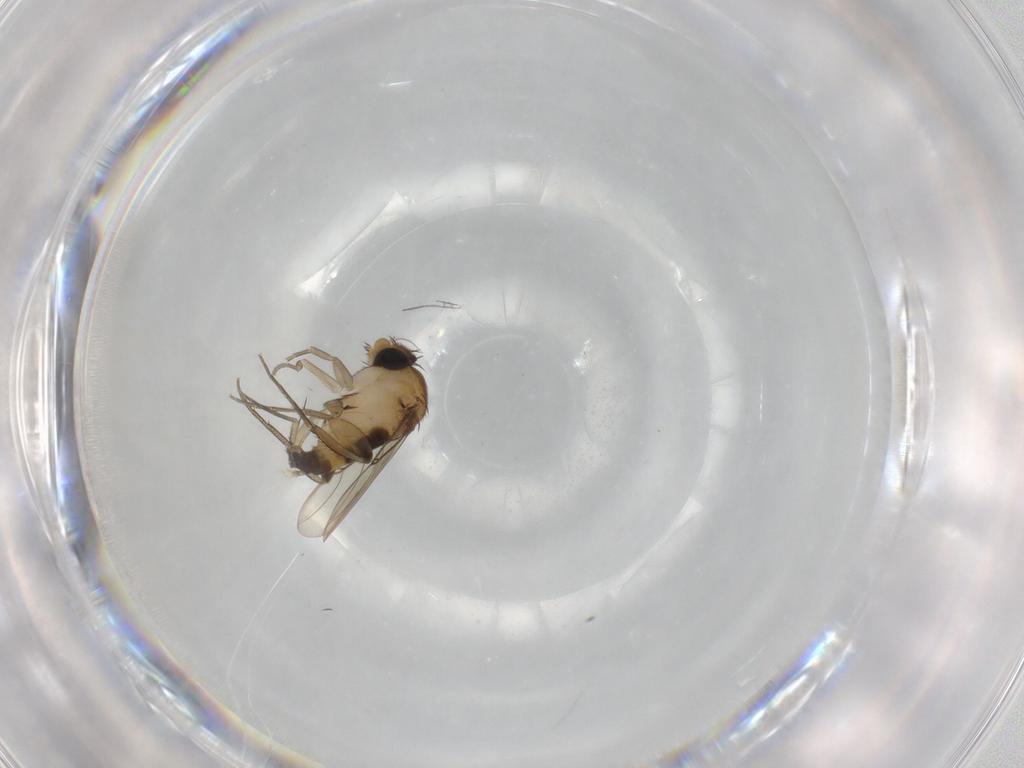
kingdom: Animalia
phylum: Arthropoda
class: Insecta
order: Diptera
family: Phoridae
